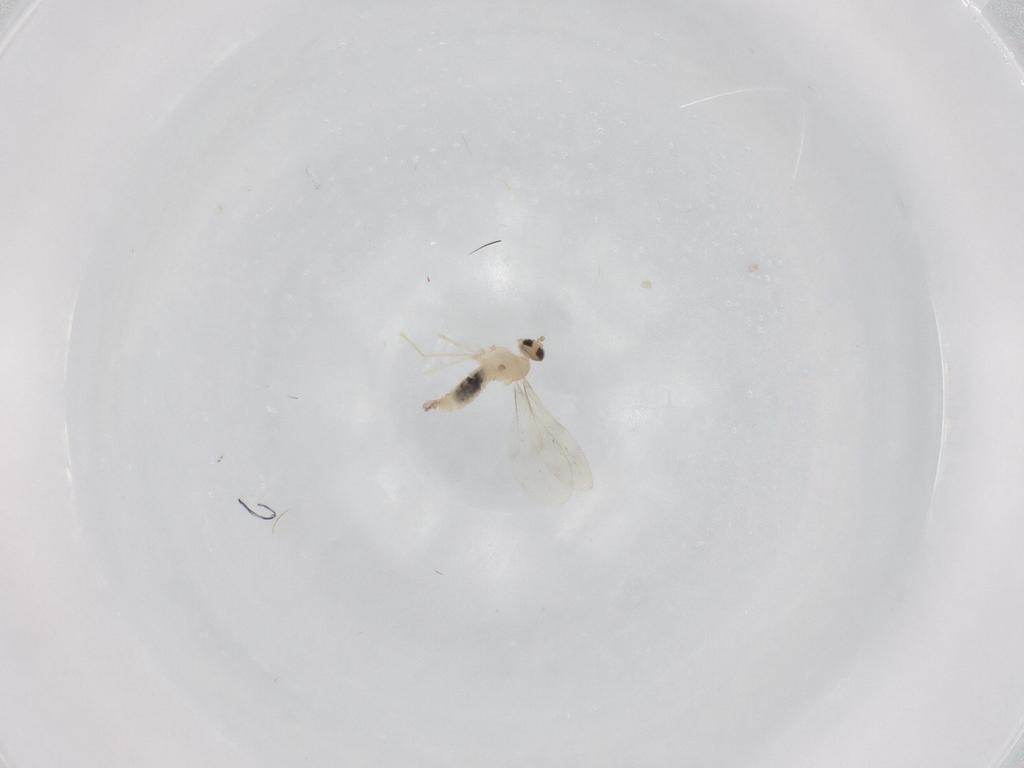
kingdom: Animalia
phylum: Arthropoda
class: Insecta
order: Diptera
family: Cecidomyiidae
